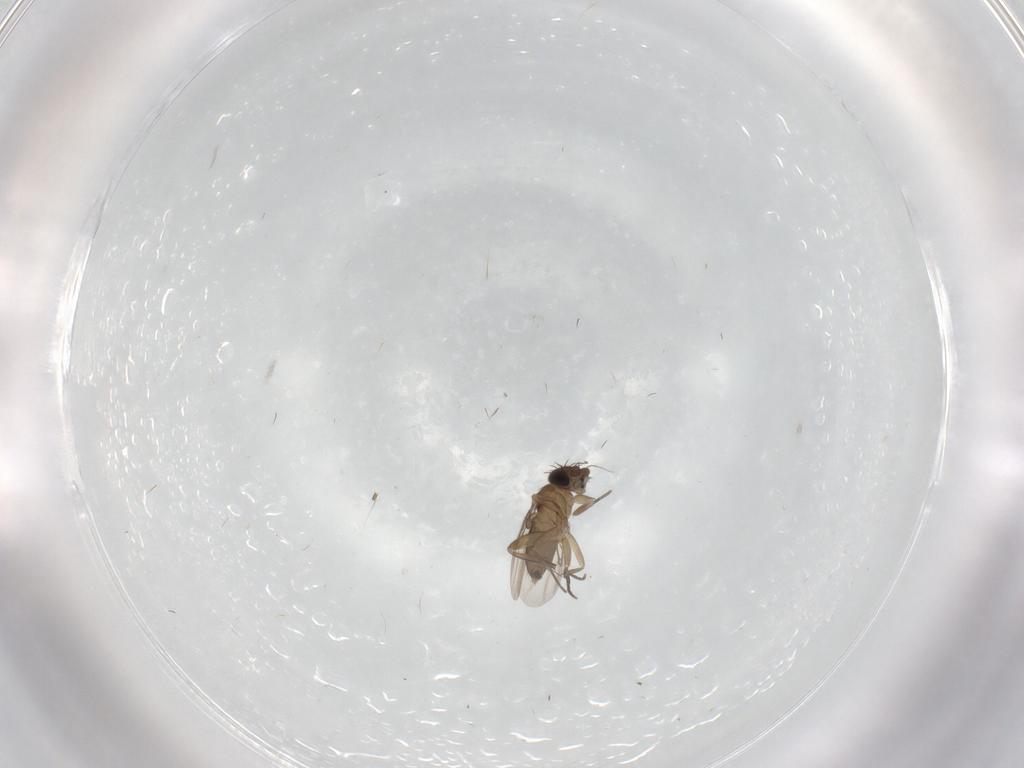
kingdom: Animalia
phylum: Arthropoda
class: Insecta
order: Diptera
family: Phoridae
